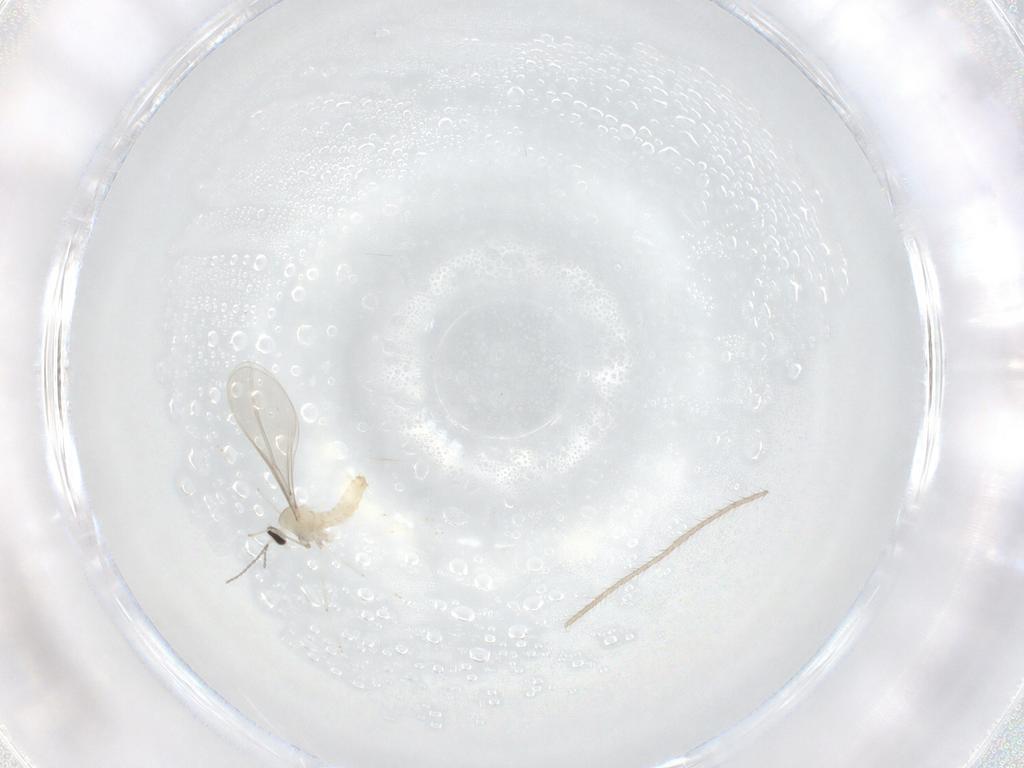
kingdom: Animalia
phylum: Arthropoda
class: Insecta
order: Diptera
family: Cecidomyiidae
